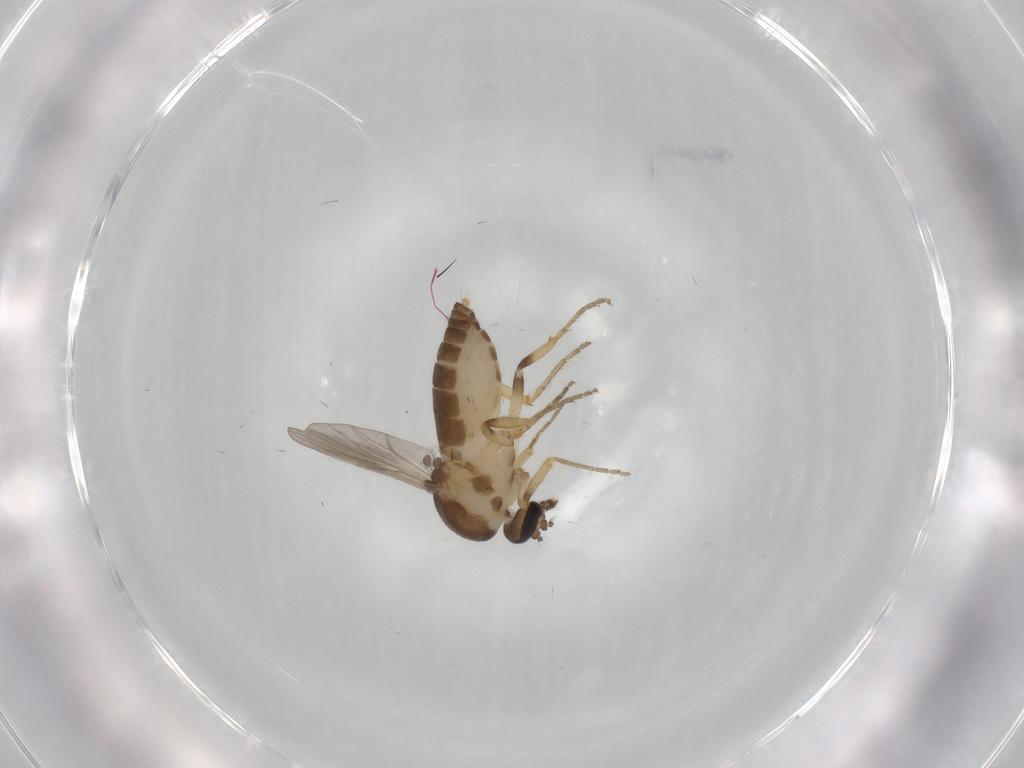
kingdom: Animalia
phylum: Arthropoda
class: Insecta
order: Diptera
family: Ceratopogonidae
